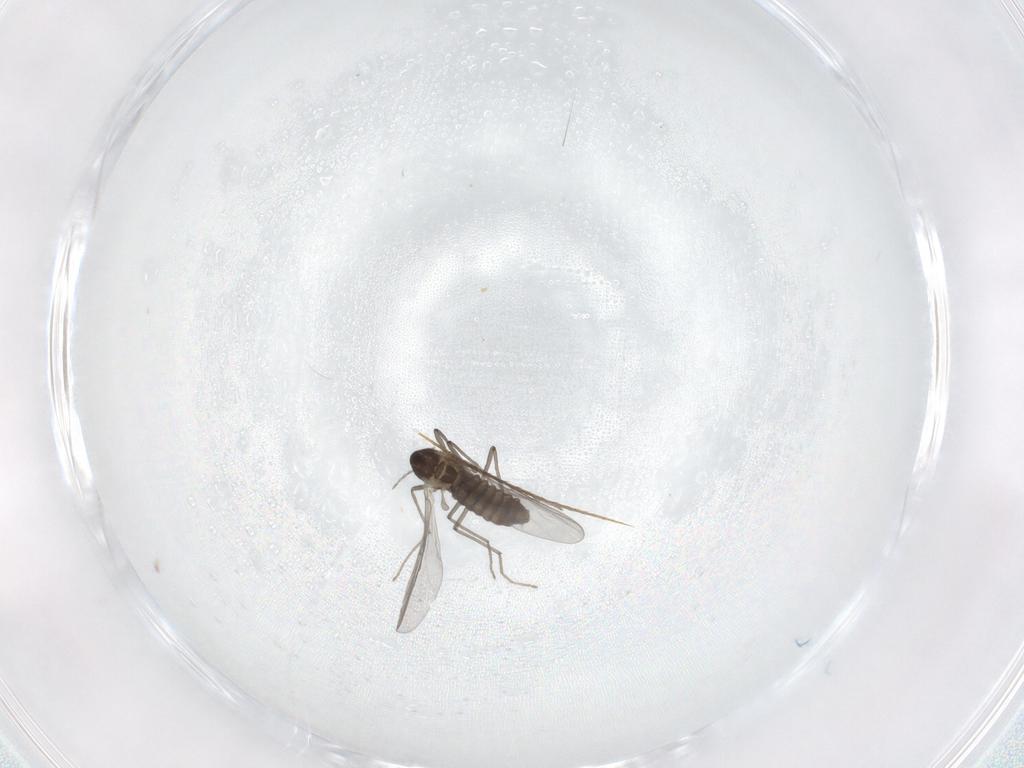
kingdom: Animalia
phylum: Arthropoda
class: Insecta
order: Diptera
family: Chironomidae
